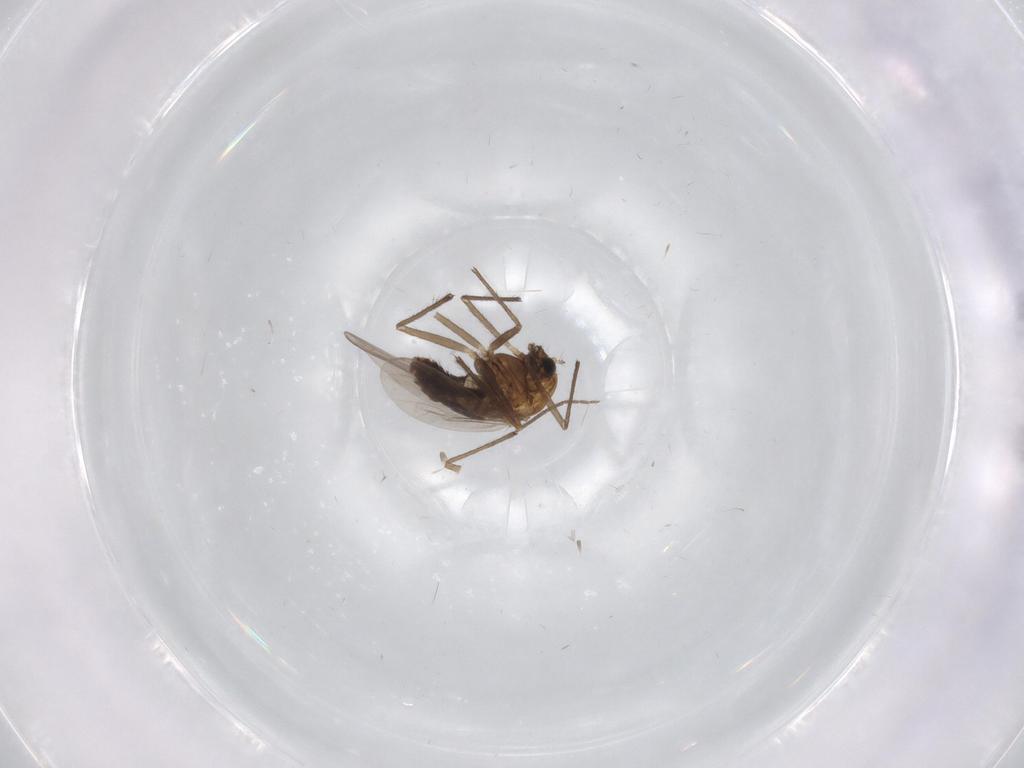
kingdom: Animalia
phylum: Arthropoda
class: Insecta
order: Diptera
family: Chironomidae
